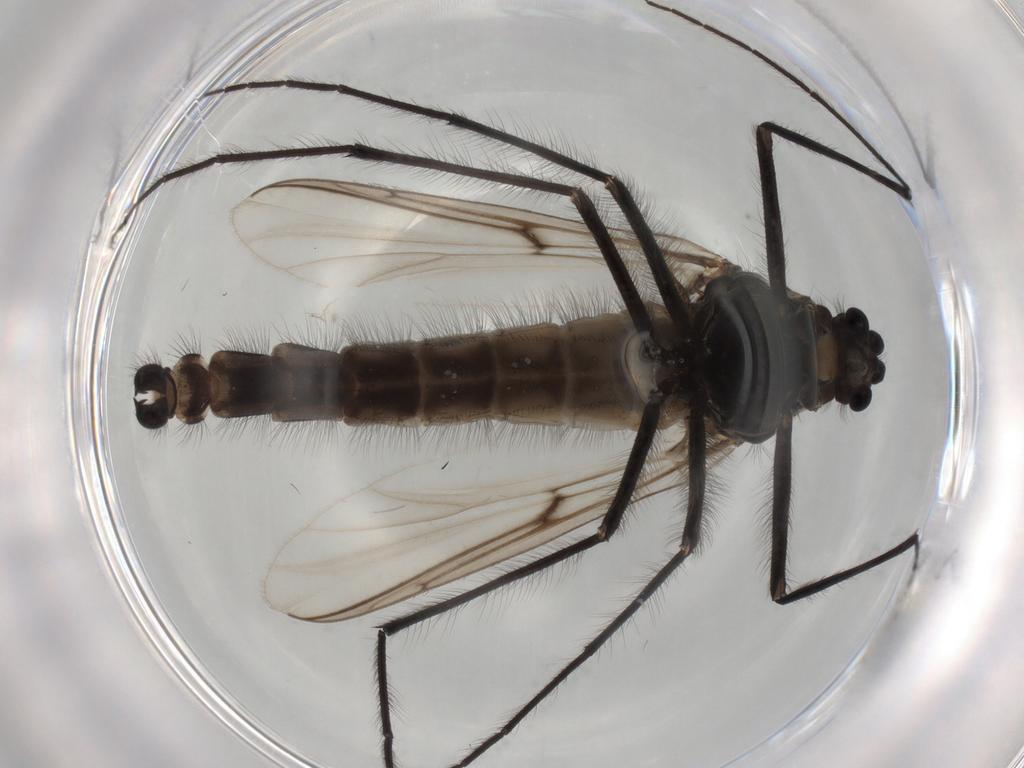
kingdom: Animalia
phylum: Arthropoda
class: Insecta
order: Diptera
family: Chironomidae
